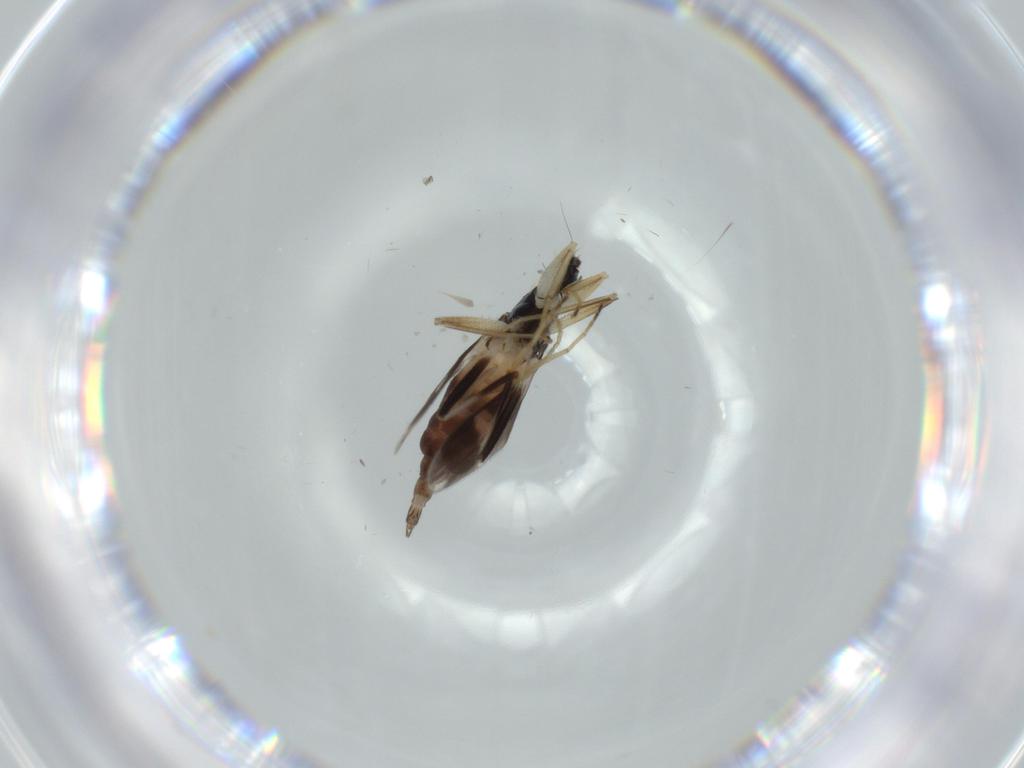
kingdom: Animalia
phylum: Arthropoda
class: Insecta
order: Diptera
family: Chironomidae
